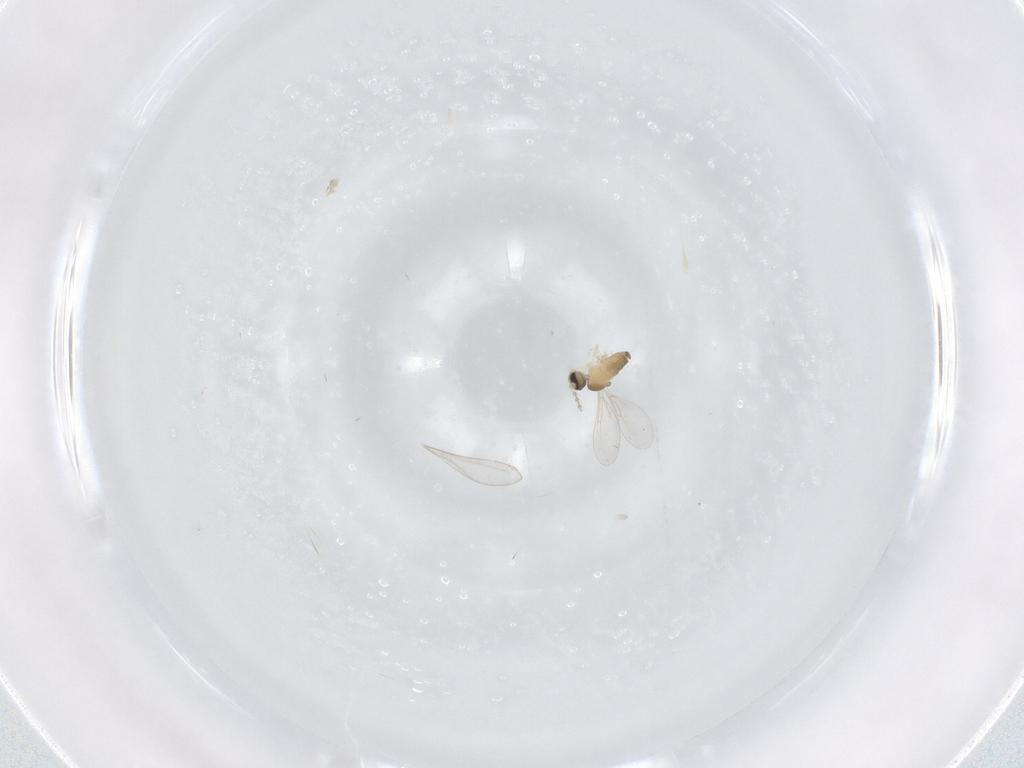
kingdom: Animalia
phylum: Arthropoda
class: Insecta
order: Diptera
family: Cecidomyiidae
